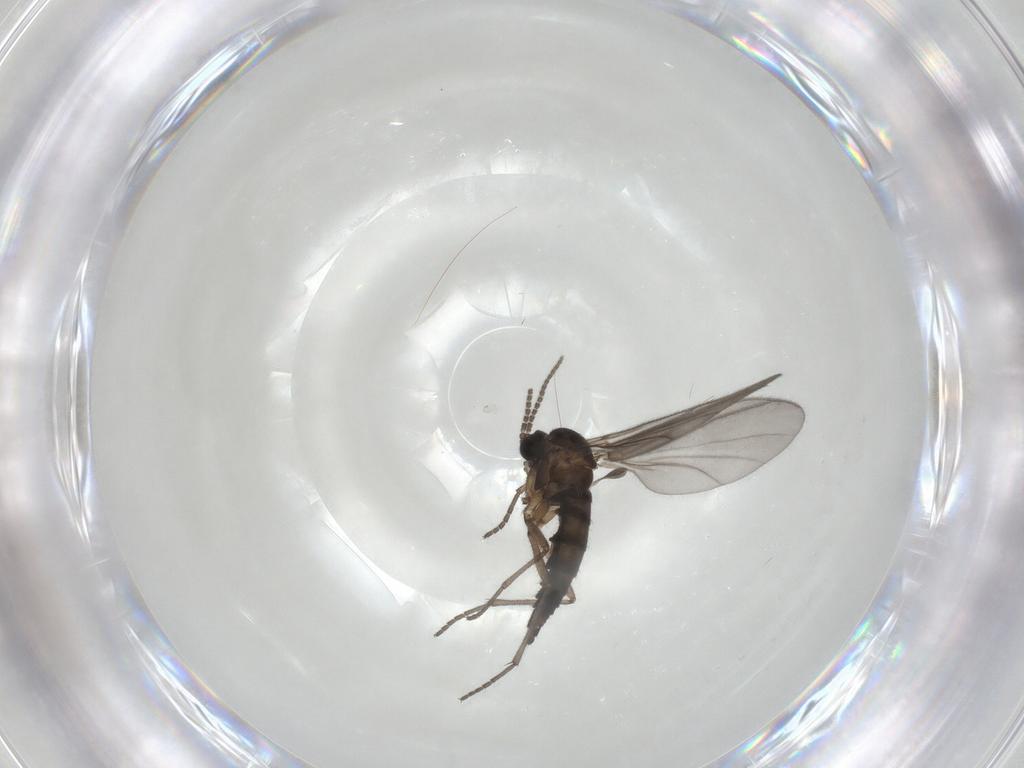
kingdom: Animalia
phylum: Arthropoda
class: Insecta
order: Diptera
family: Sciaridae
